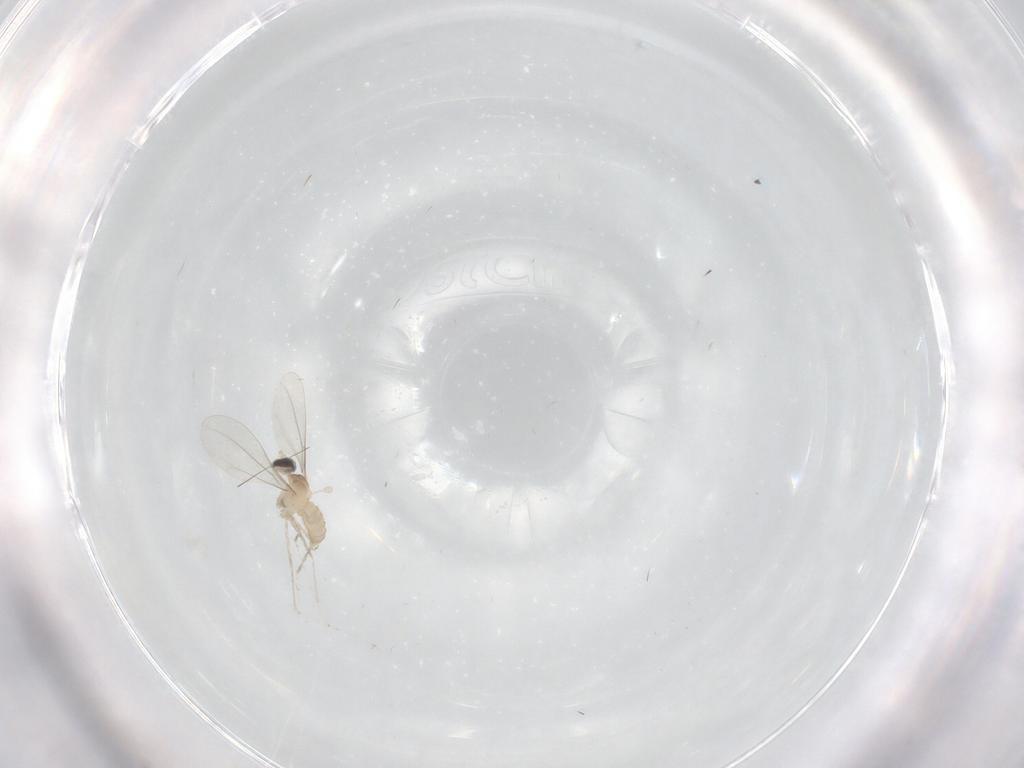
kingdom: Animalia
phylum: Arthropoda
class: Insecta
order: Diptera
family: Cecidomyiidae
